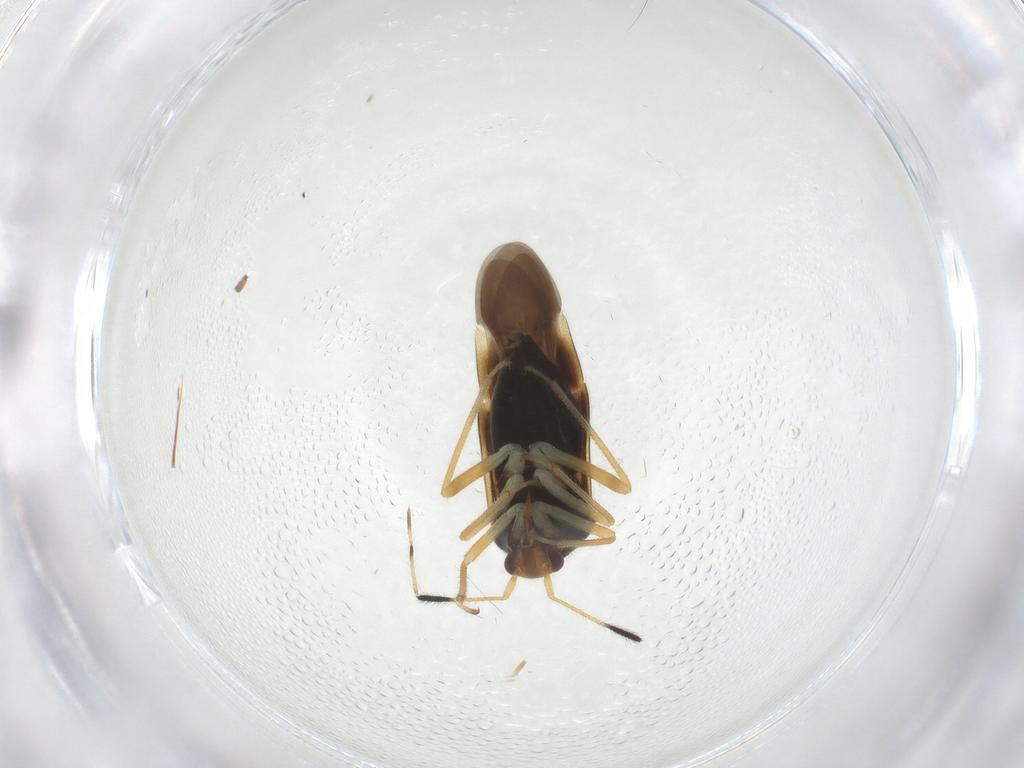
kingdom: Animalia
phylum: Arthropoda
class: Insecta
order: Hemiptera
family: Miridae
